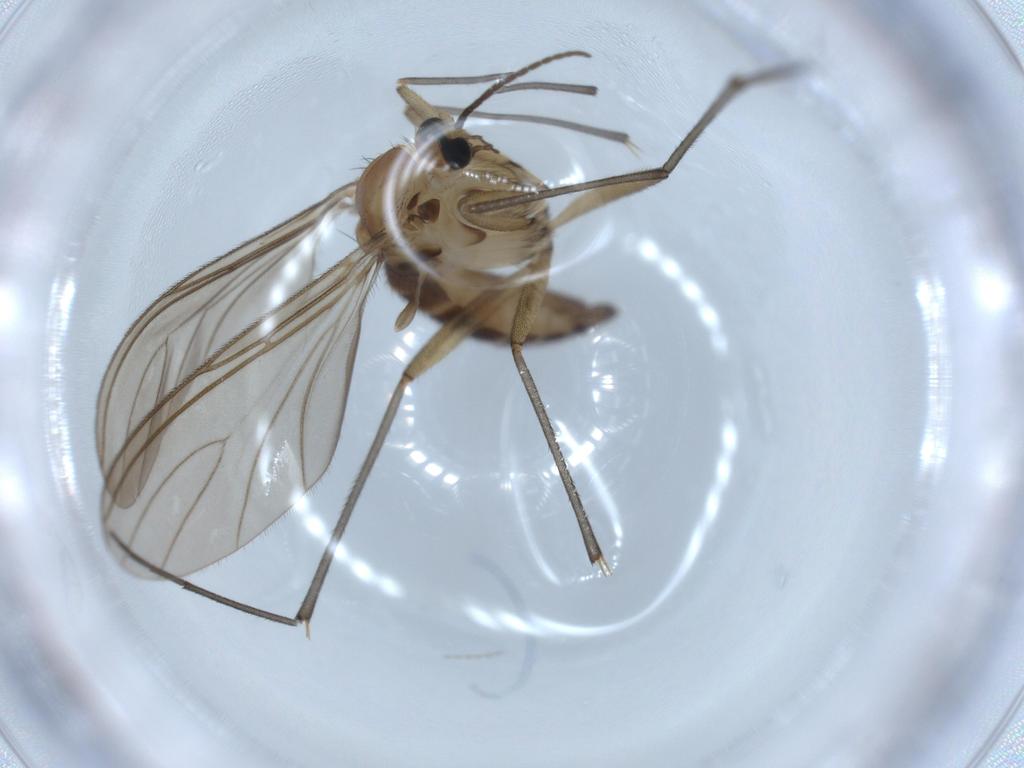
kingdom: Animalia
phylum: Arthropoda
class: Insecta
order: Diptera
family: Sciaridae
